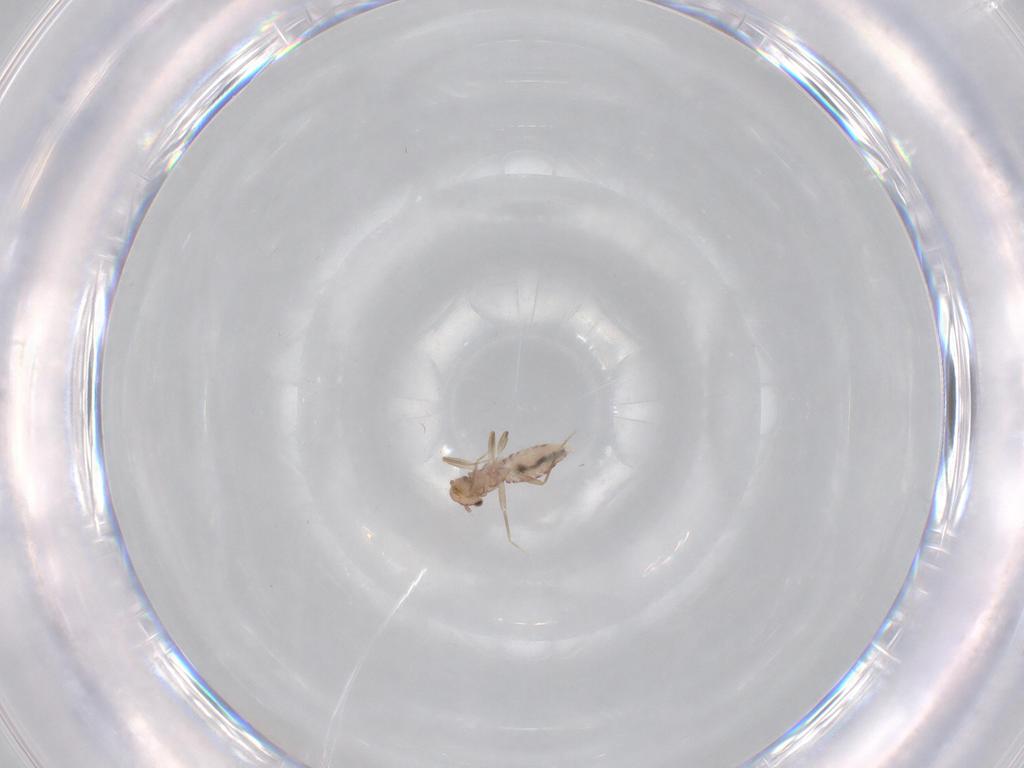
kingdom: Animalia
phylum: Arthropoda
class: Insecta
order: Psocodea
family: Lepidopsocidae
